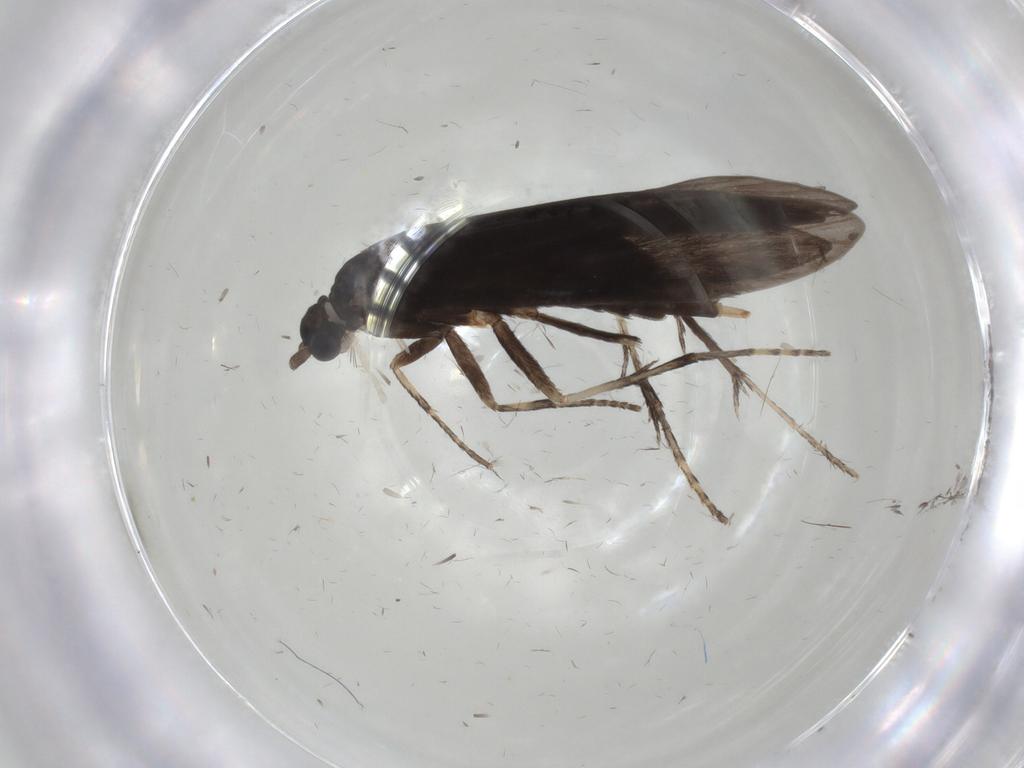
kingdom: Animalia
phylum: Arthropoda
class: Insecta
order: Trichoptera
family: Xiphocentronidae
